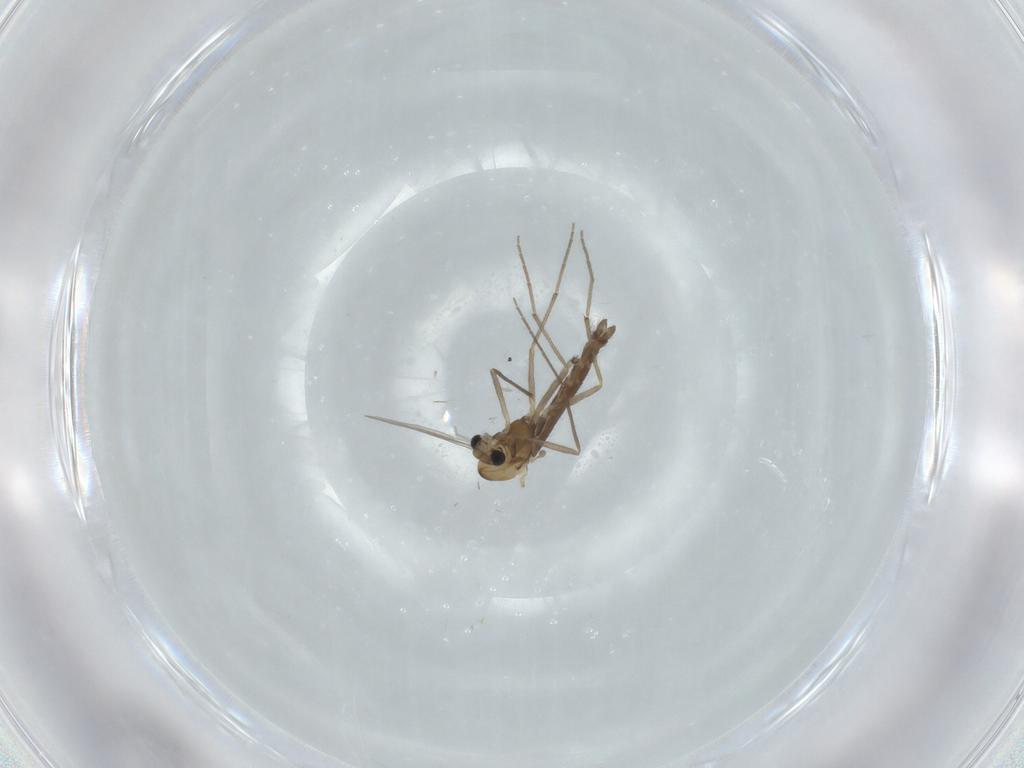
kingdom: Animalia
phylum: Arthropoda
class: Insecta
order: Diptera
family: Chironomidae
